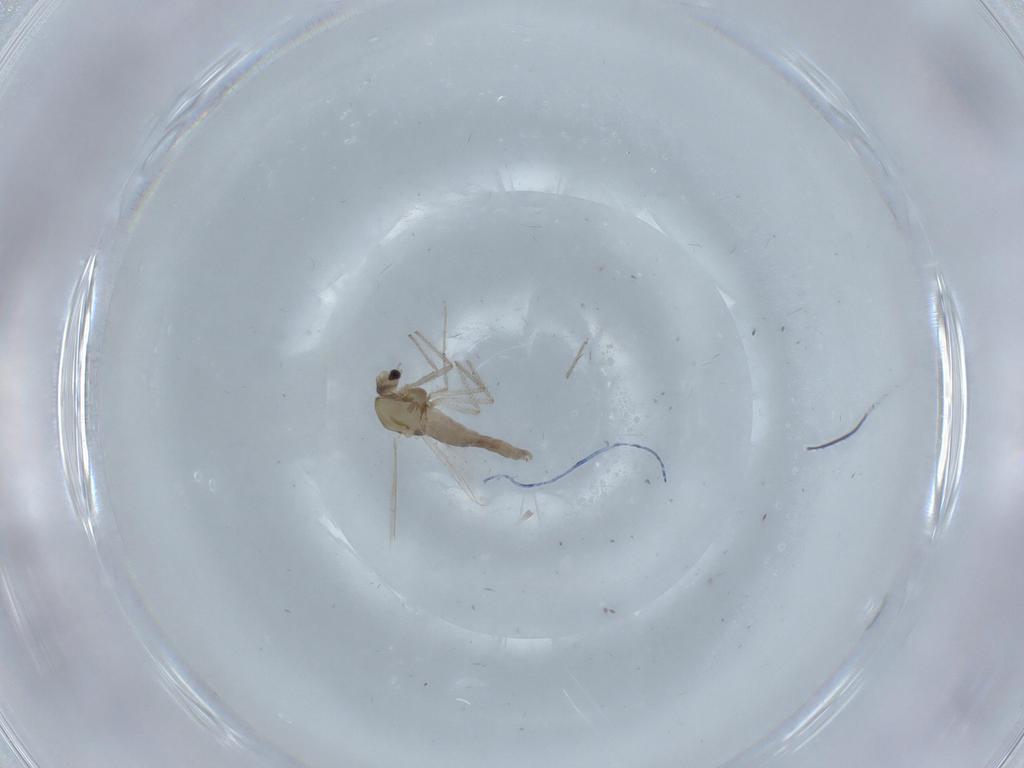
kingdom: Animalia
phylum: Arthropoda
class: Insecta
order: Diptera
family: Chironomidae
